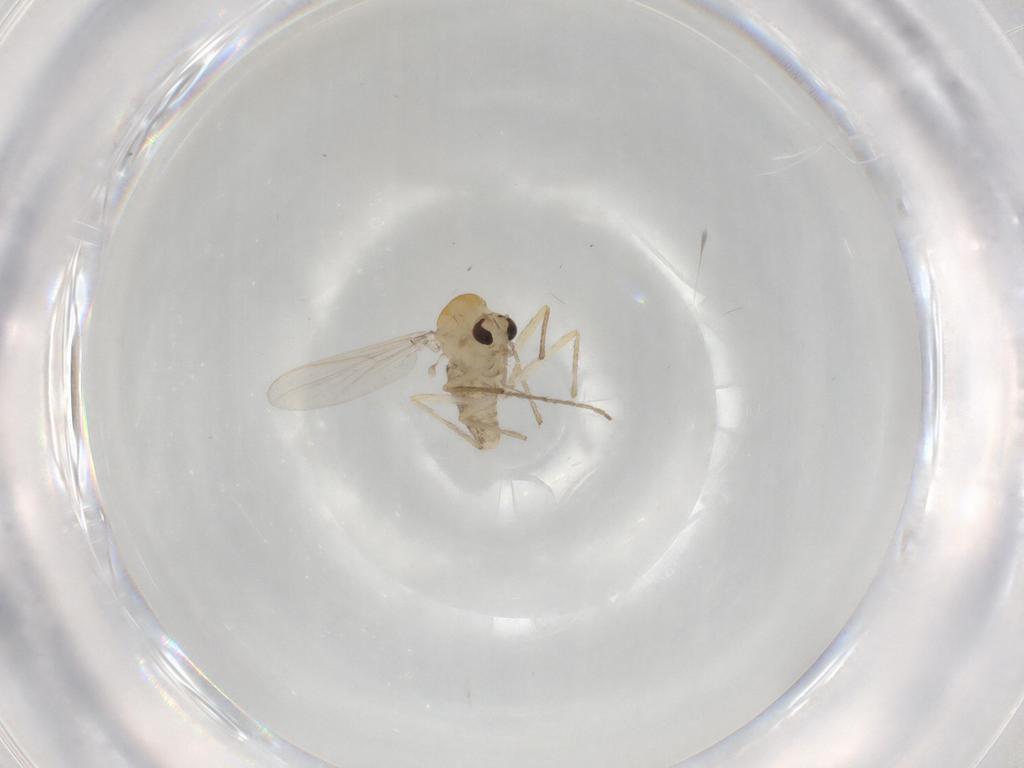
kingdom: Animalia
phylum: Arthropoda
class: Insecta
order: Diptera
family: Chironomidae
